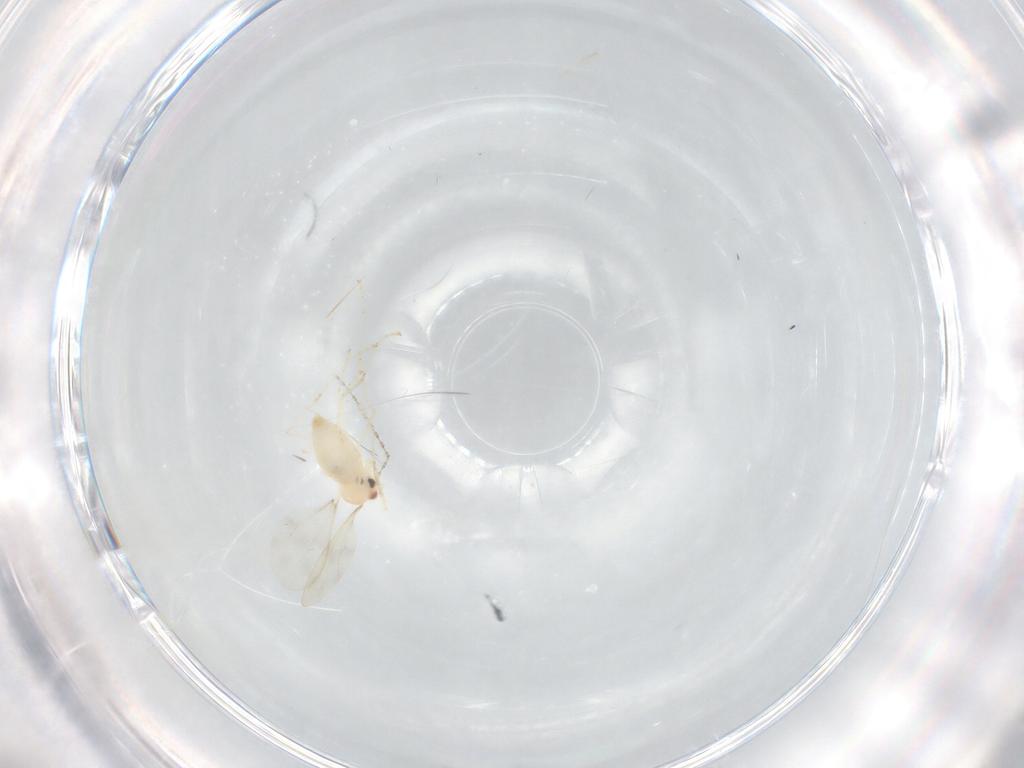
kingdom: Animalia
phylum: Arthropoda
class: Insecta
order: Diptera
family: Cecidomyiidae
